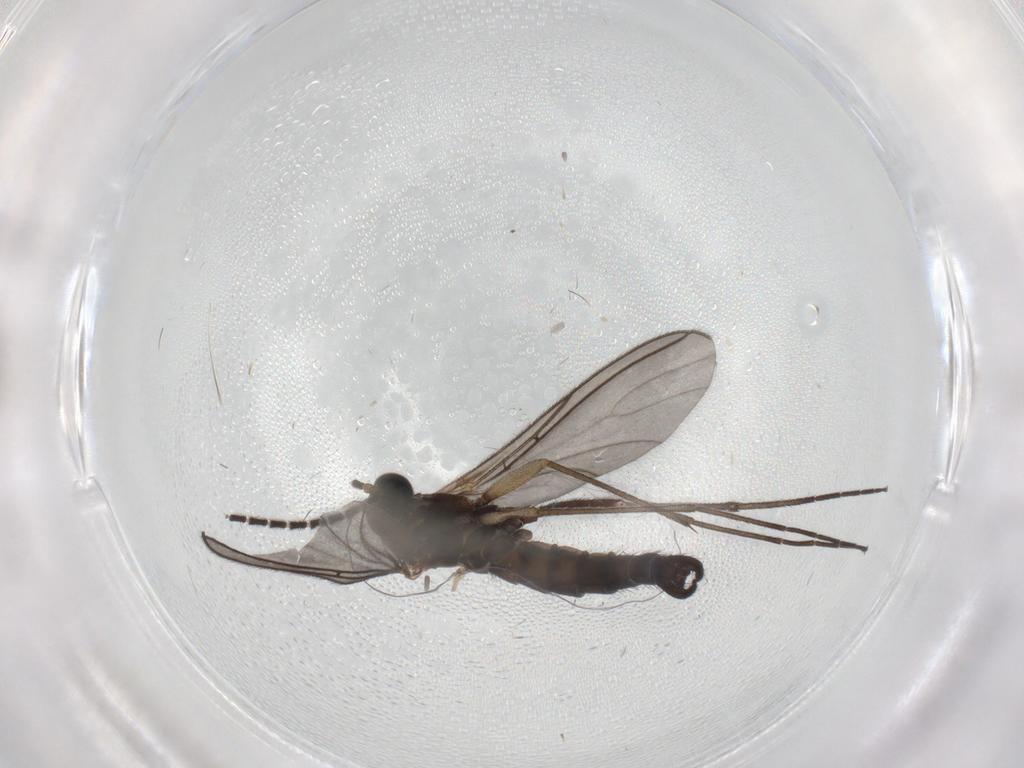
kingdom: Animalia
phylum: Arthropoda
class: Insecta
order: Diptera
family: Sciaridae
